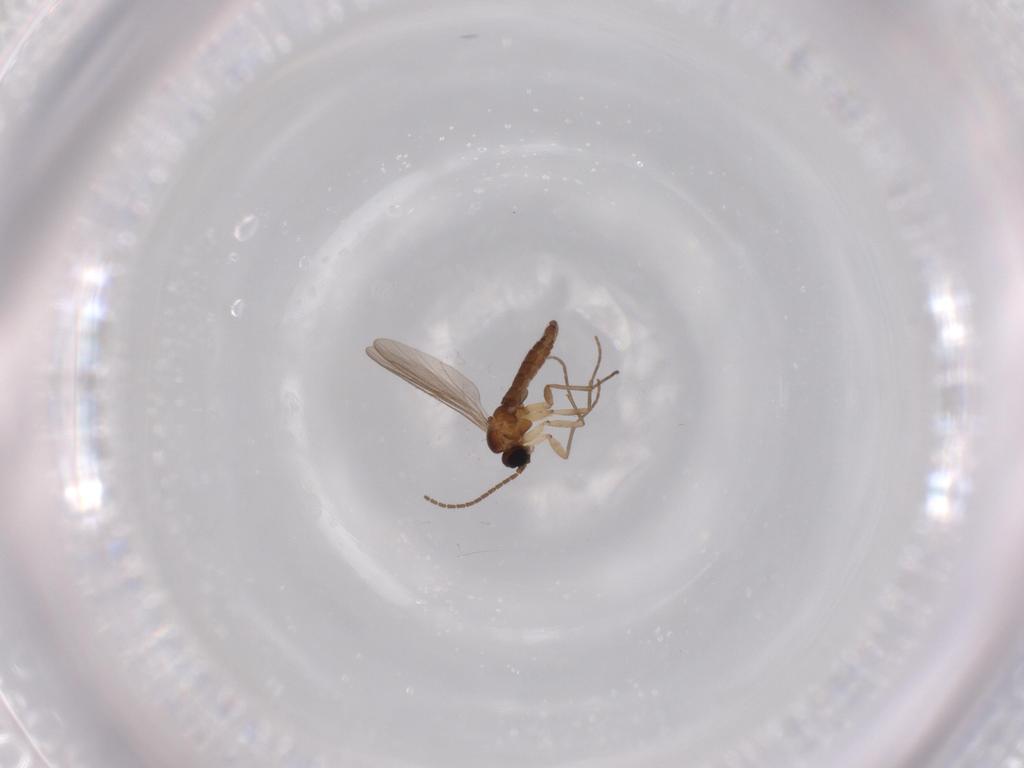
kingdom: Animalia
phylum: Arthropoda
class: Insecta
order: Diptera
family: Sciaridae
